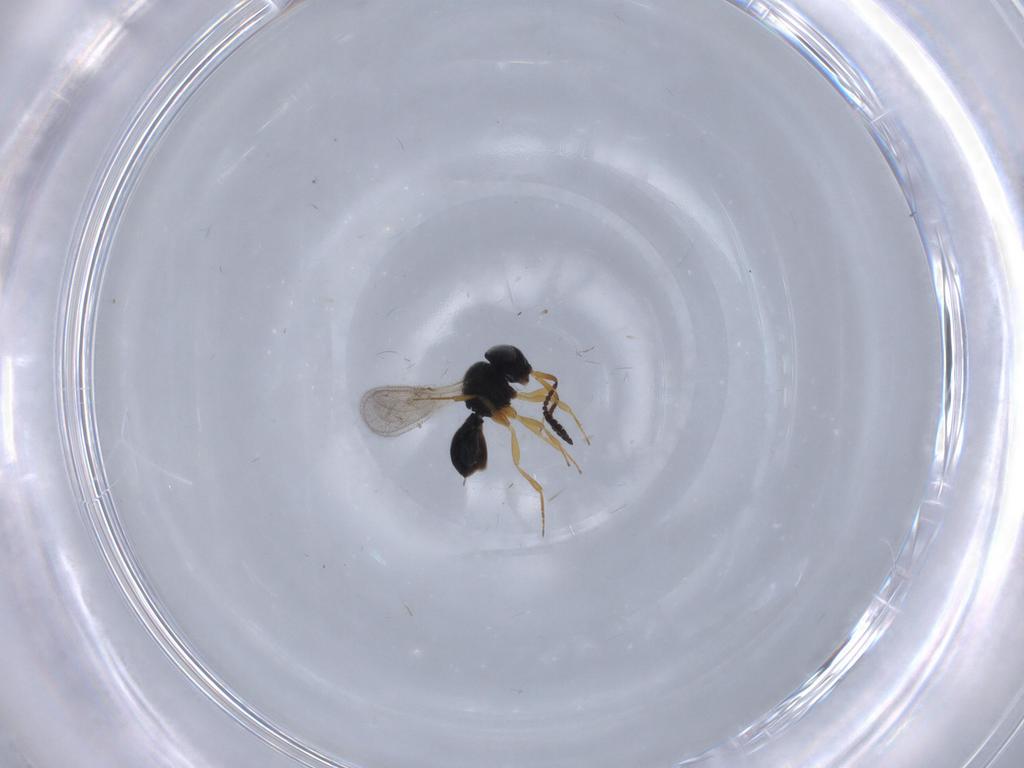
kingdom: Animalia
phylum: Arthropoda
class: Insecta
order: Hymenoptera
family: Scelionidae
